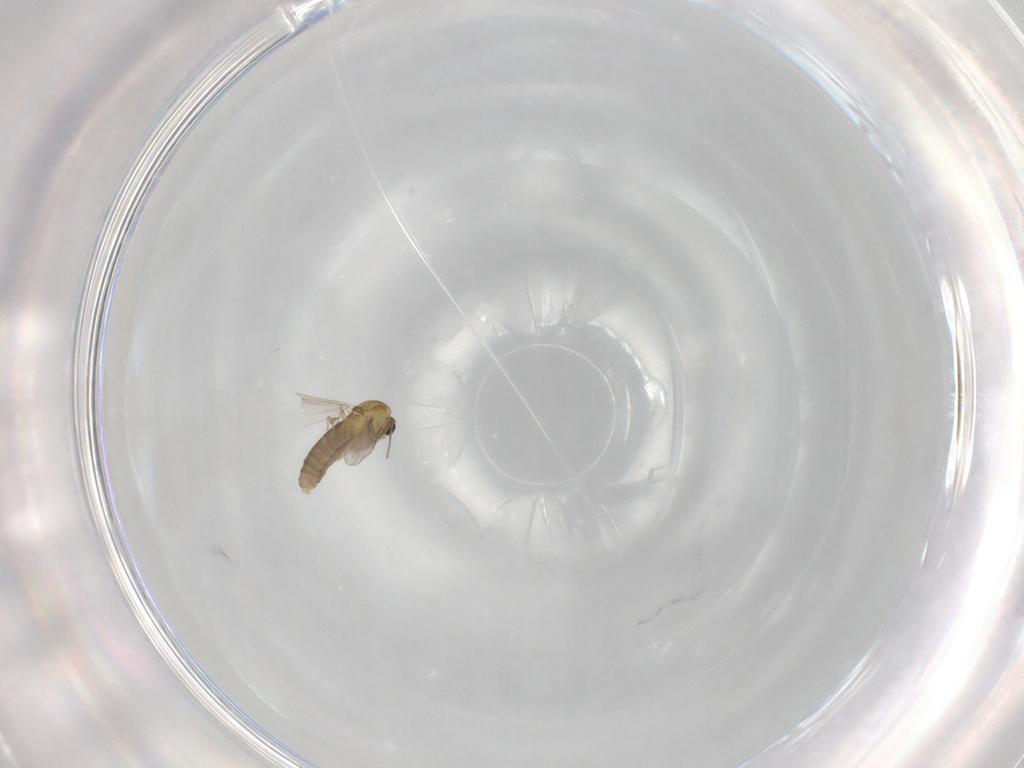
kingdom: Animalia
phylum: Arthropoda
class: Insecta
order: Diptera
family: Chironomidae
